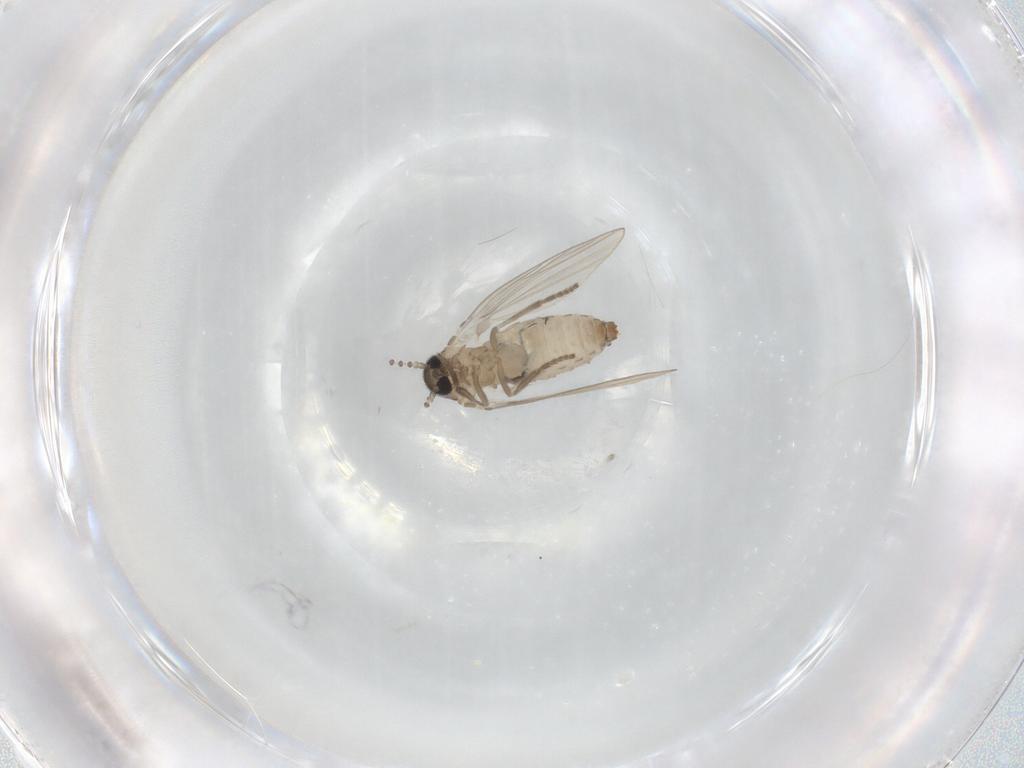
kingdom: Animalia
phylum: Arthropoda
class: Insecta
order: Diptera
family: Psychodidae
